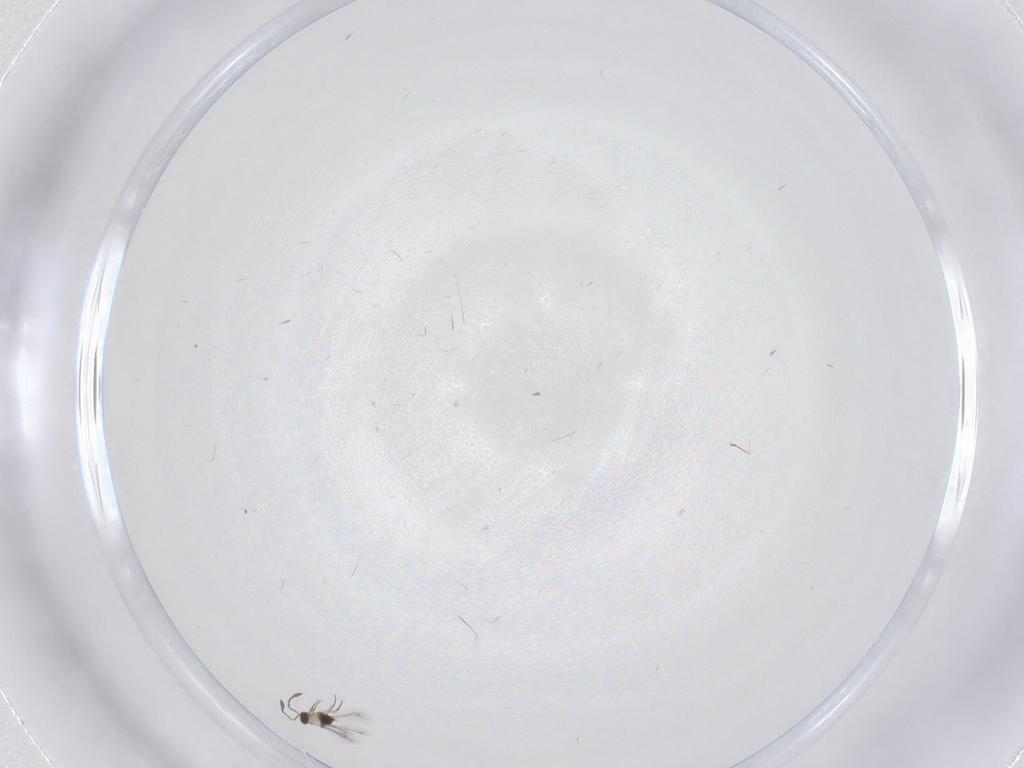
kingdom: Animalia
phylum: Arthropoda
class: Insecta
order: Hymenoptera
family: Mymaridae
